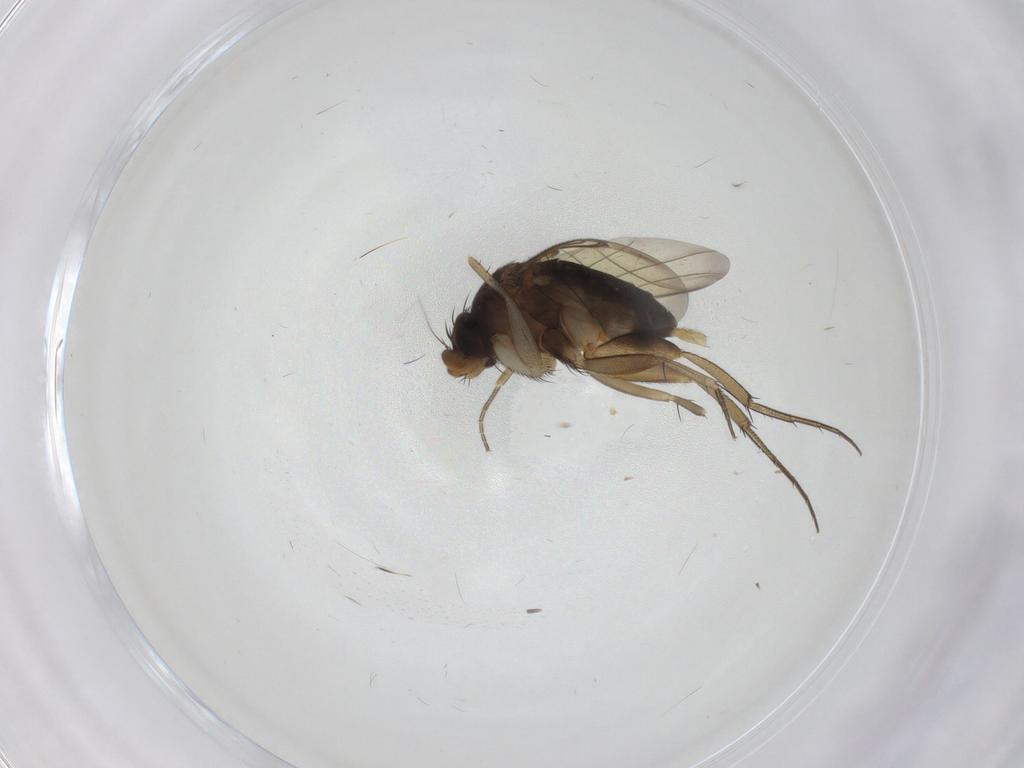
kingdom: Animalia
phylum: Arthropoda
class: Insecta
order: Diptera
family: Phoridae
